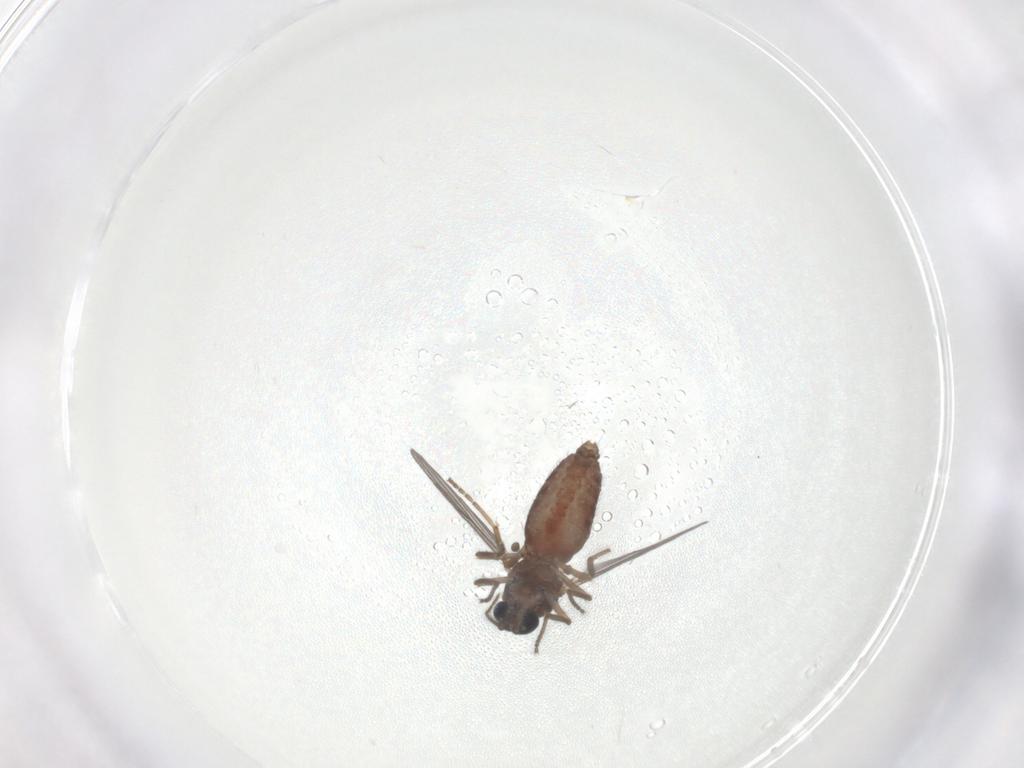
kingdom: Animalia
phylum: Arthropoda
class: Insecta
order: Diptera
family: Ceratopogonidae
